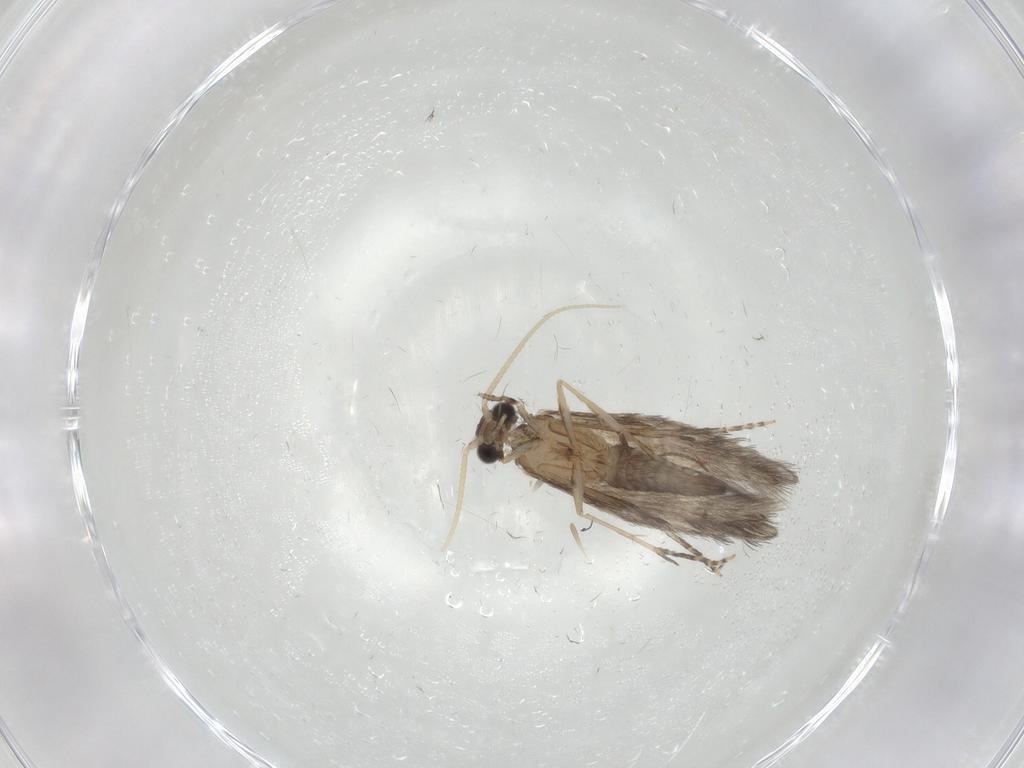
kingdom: Animalia
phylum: Arthropoda
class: Insecta
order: Trichoptera
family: Hydroptilidae
